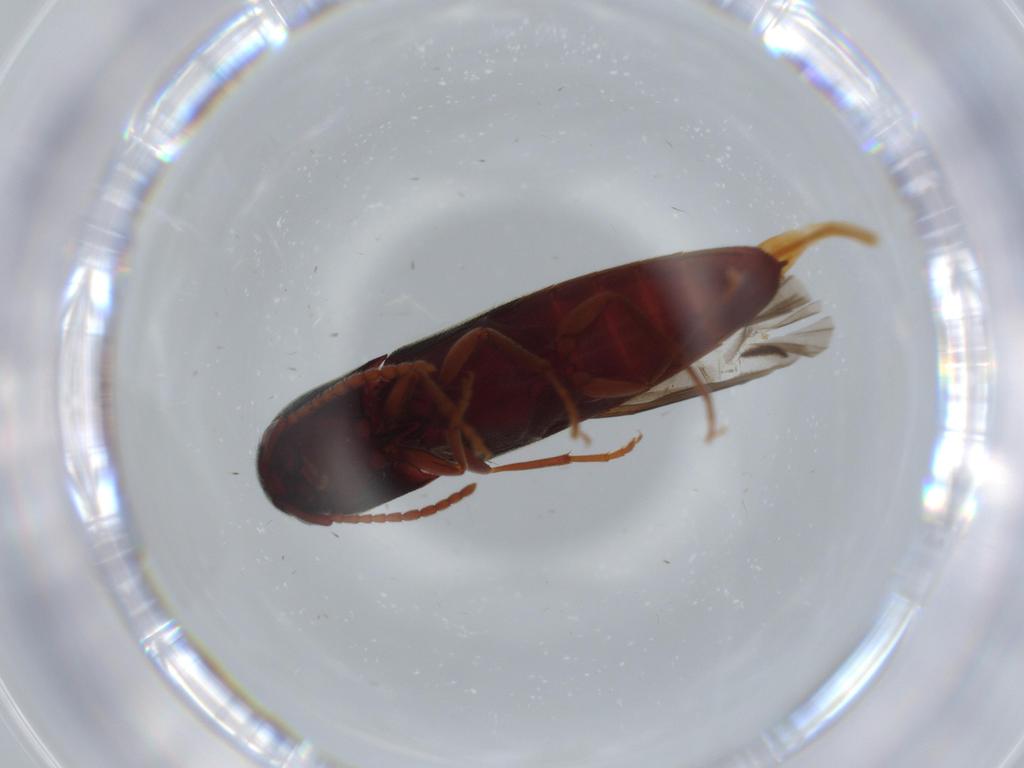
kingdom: Animalia
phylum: Arthropoda
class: Insecta
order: Coleoptera
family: Eucnemidae
